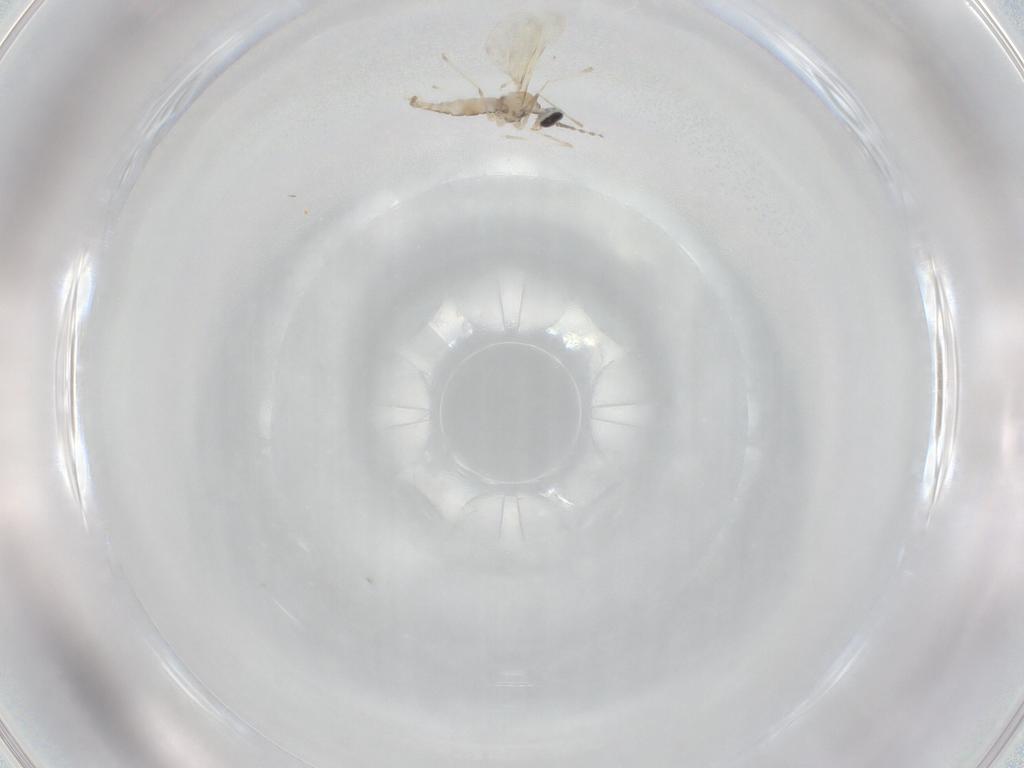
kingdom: Animalia
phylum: Arthropoda
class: Insecta
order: Diptera
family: Cecidomyiidae
